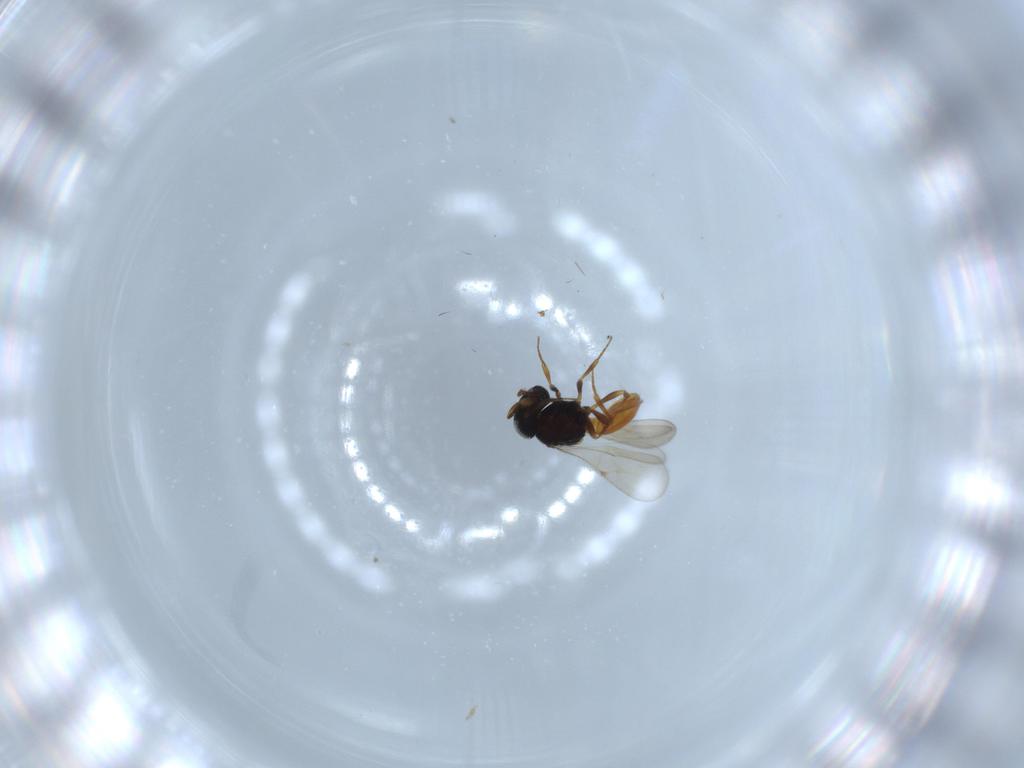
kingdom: Animalia
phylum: Arthropoda
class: Insecta
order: Hymenoptera
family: Scelionidae
